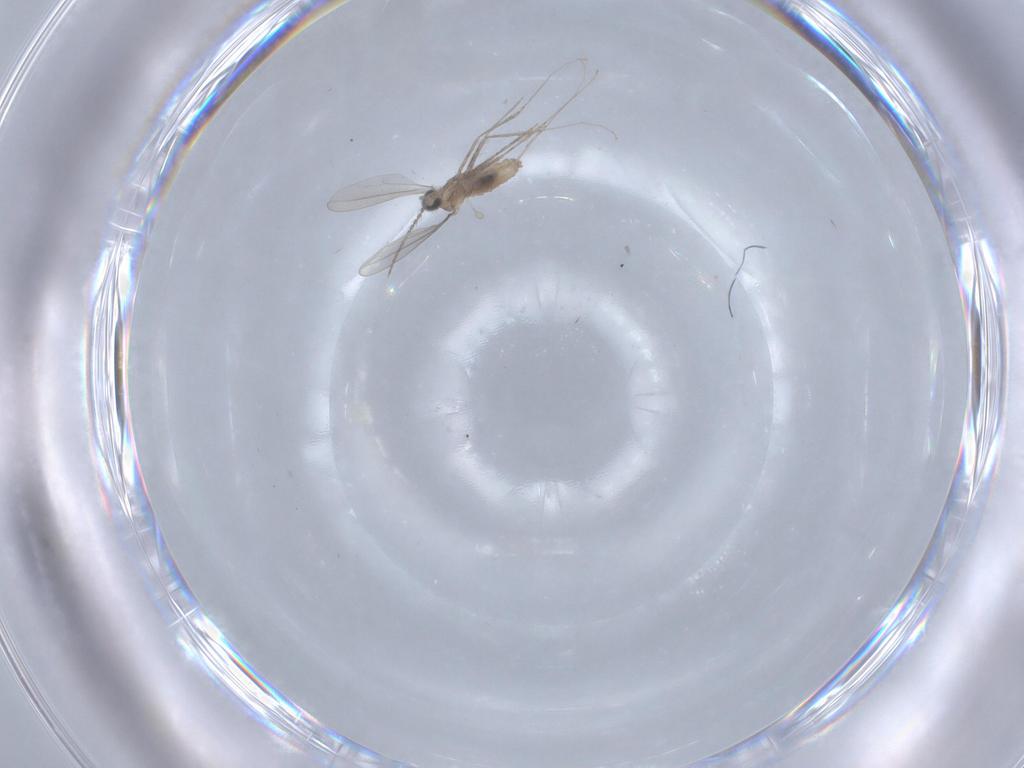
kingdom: Animalia
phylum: Arthropoda
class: Insecta
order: Diptera
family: Cecidomyiidae
